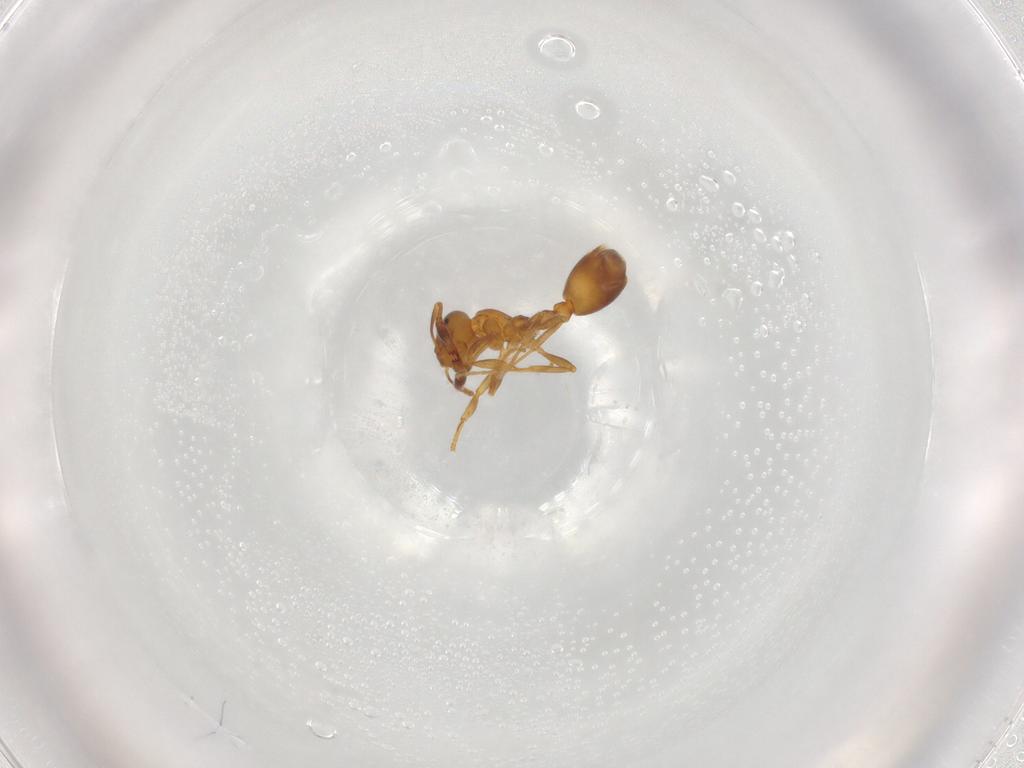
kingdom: Animalia
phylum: Arthropoda
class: Insecta
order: Hymenoptera
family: Formicidae
